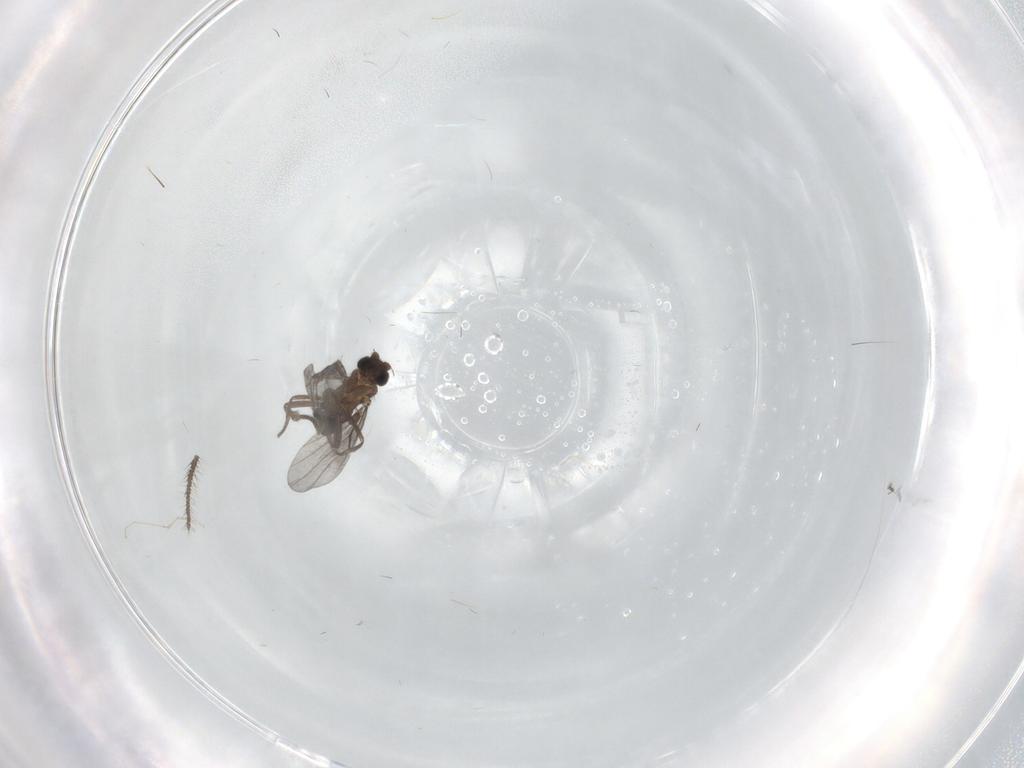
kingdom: Animalia
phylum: Arthropoda
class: Insecta
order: Diptera
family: Cecidomyiidae
